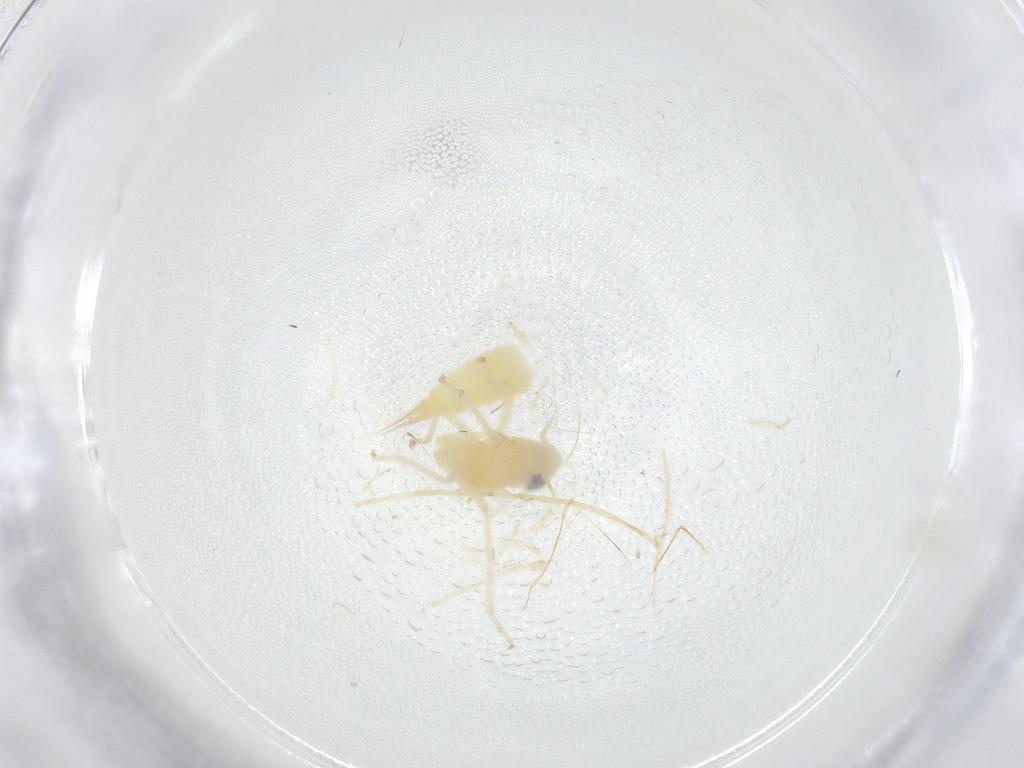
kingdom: Animalia
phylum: Arthropoda
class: Insecta
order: Hemiptera
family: Cicadellidae
